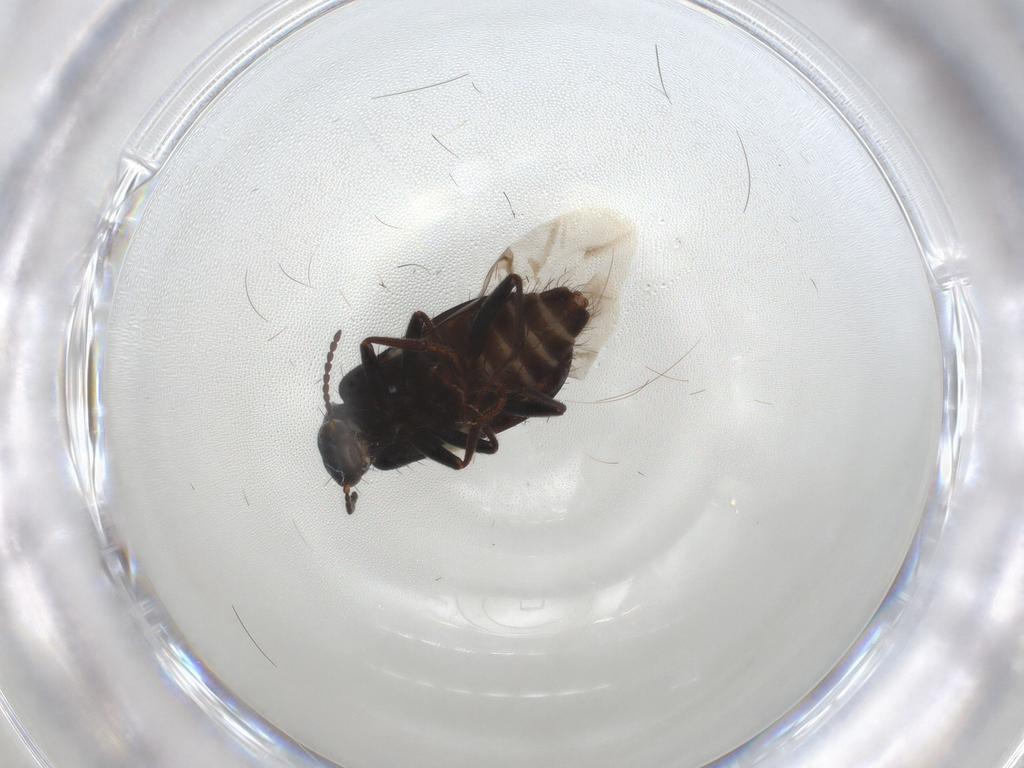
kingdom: Animalia
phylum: Arthropoda
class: Insecta
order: Coleoptera
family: Melyridae
